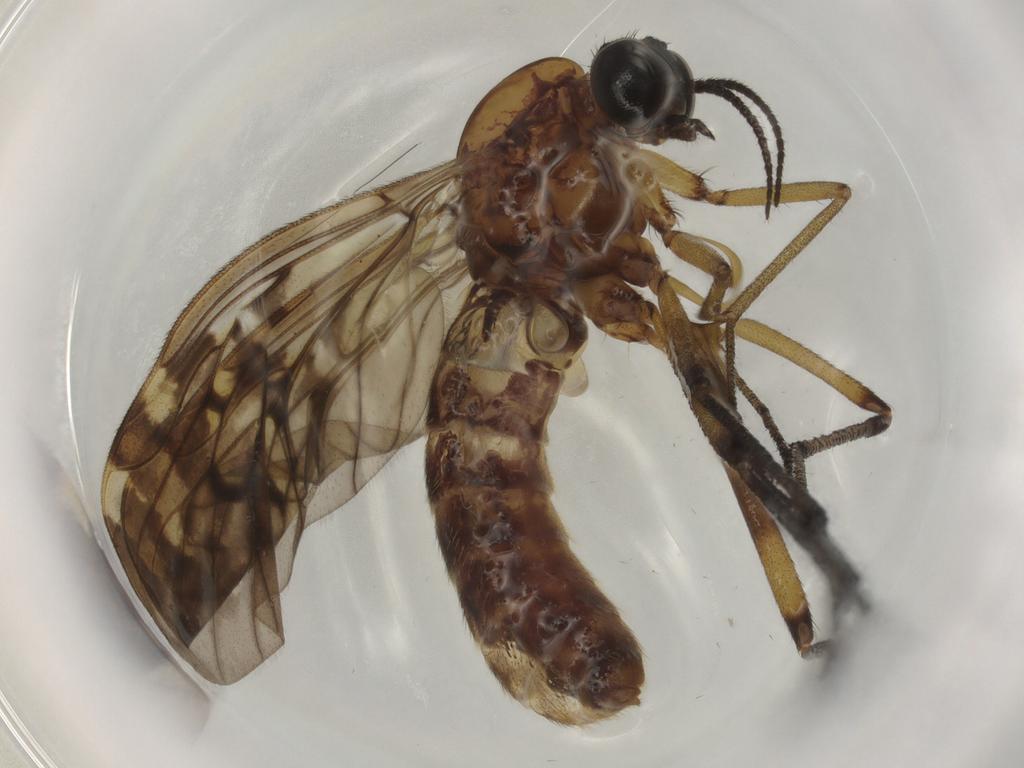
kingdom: Animalia
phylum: Arthropoda
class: Insecta
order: Diptera
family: Chironomidae
